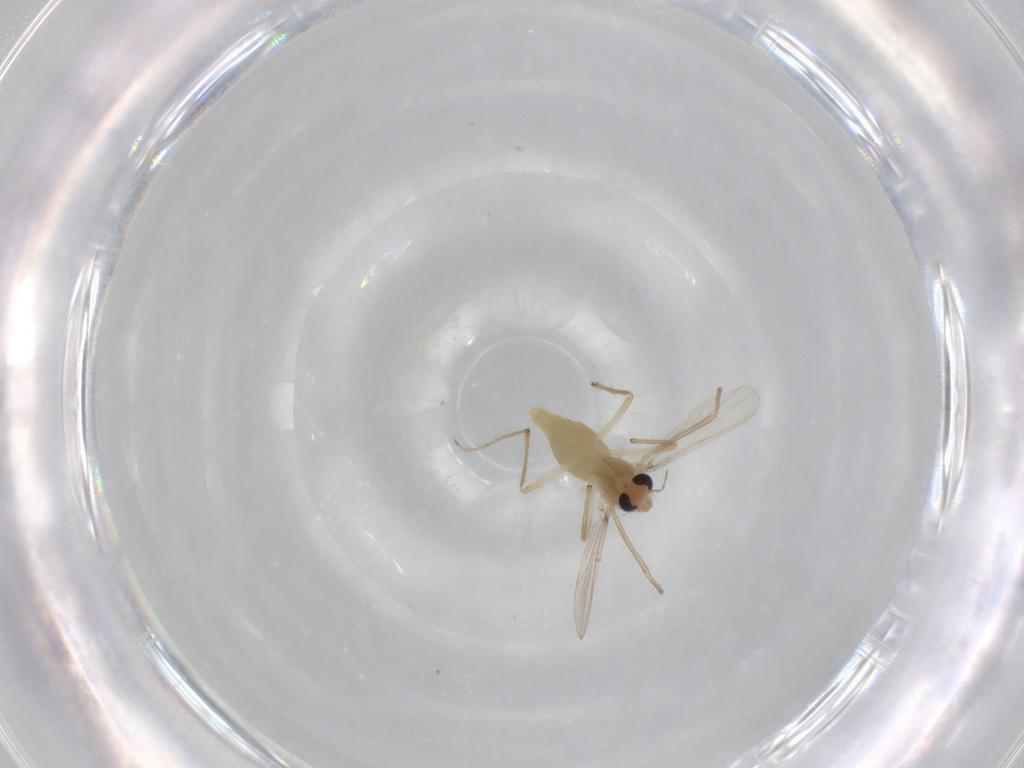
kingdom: Animalia
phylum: Arthropoda
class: Insecta
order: Diptera
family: Chironomidae
